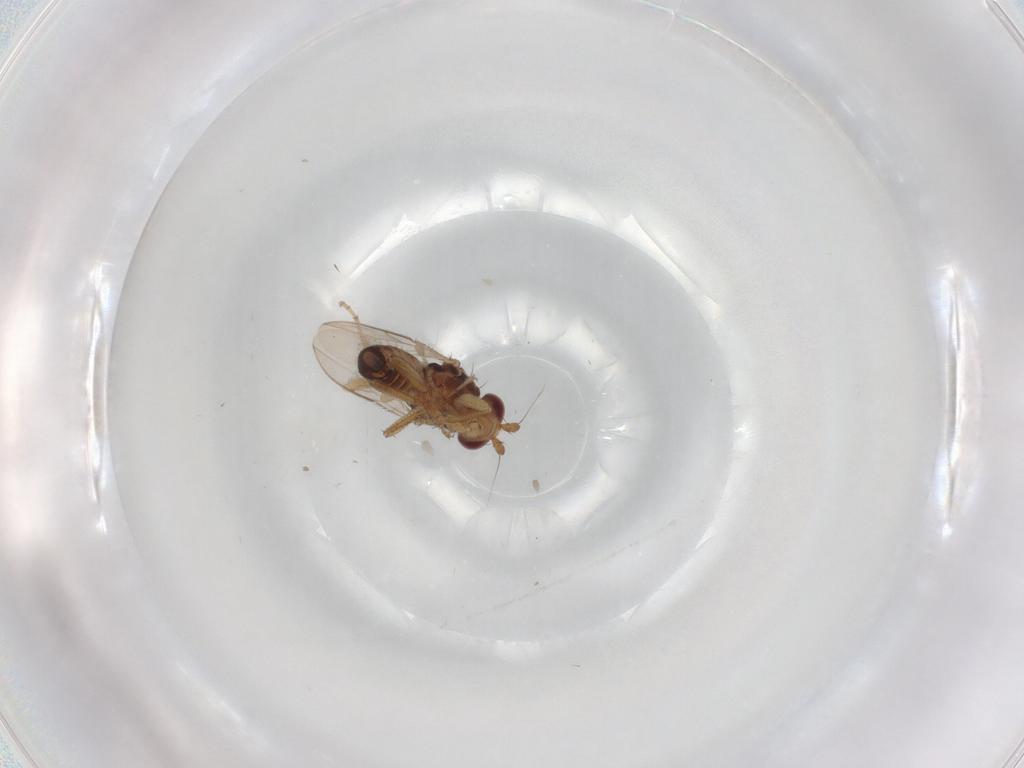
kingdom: Animalia
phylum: Arthropoda
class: Insecta
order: Diptera
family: Sphaeroceridae
